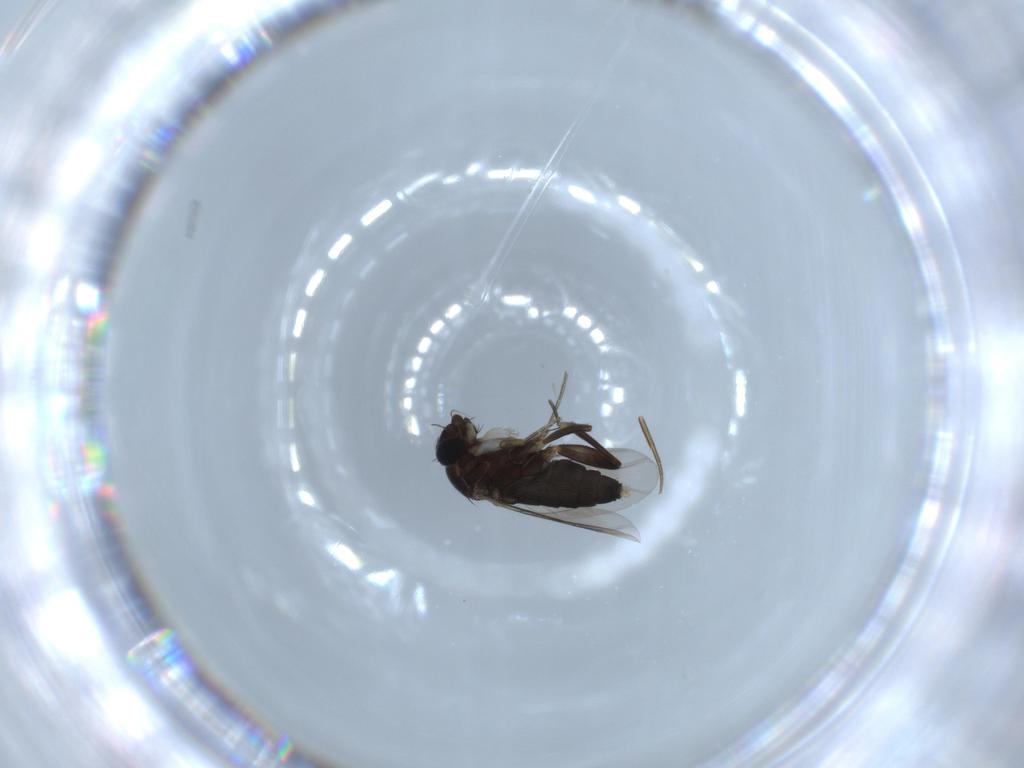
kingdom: Animalia
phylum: Arthropoda
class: Insecta
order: Diptera
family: Phoridae
